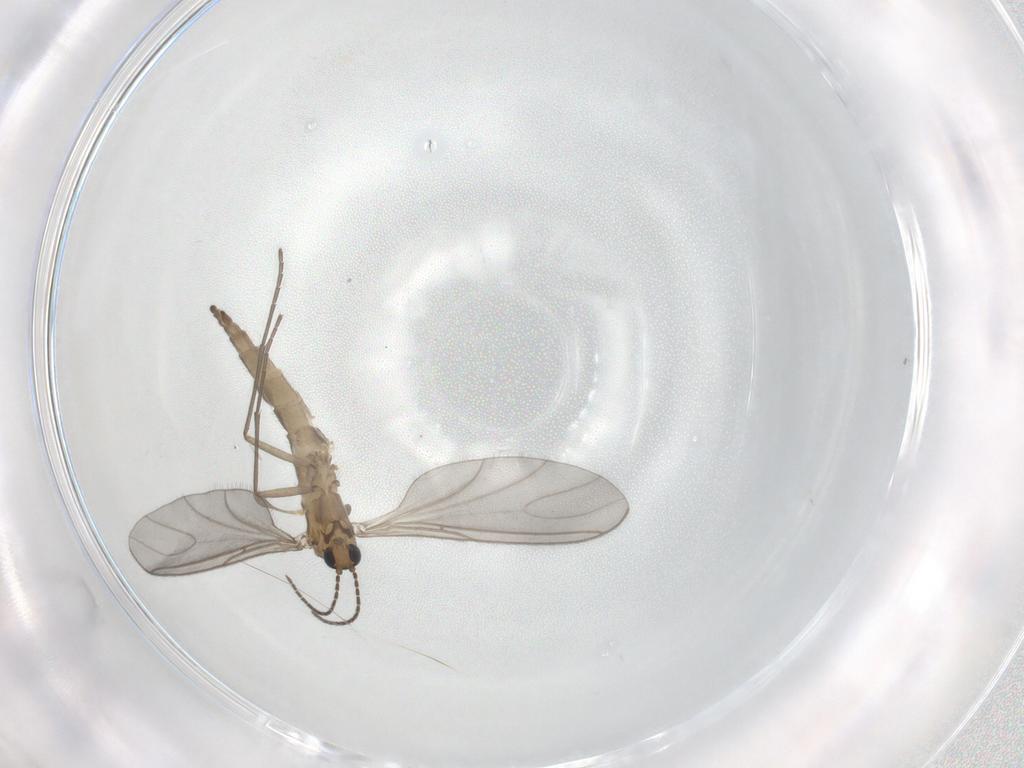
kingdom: Animalia
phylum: Arthropoda
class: Insecta
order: Diptera
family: Sciaridae
